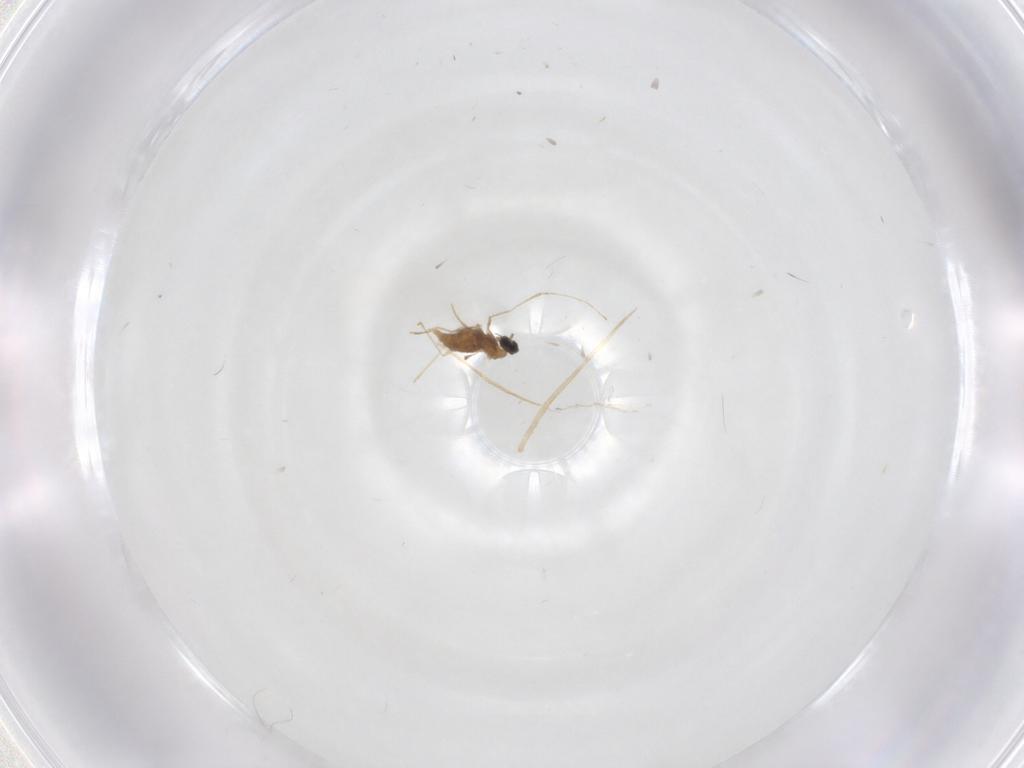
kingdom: Animalia
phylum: Arthropoda
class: Insecta
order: Diptera
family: Cecidomyiidae
